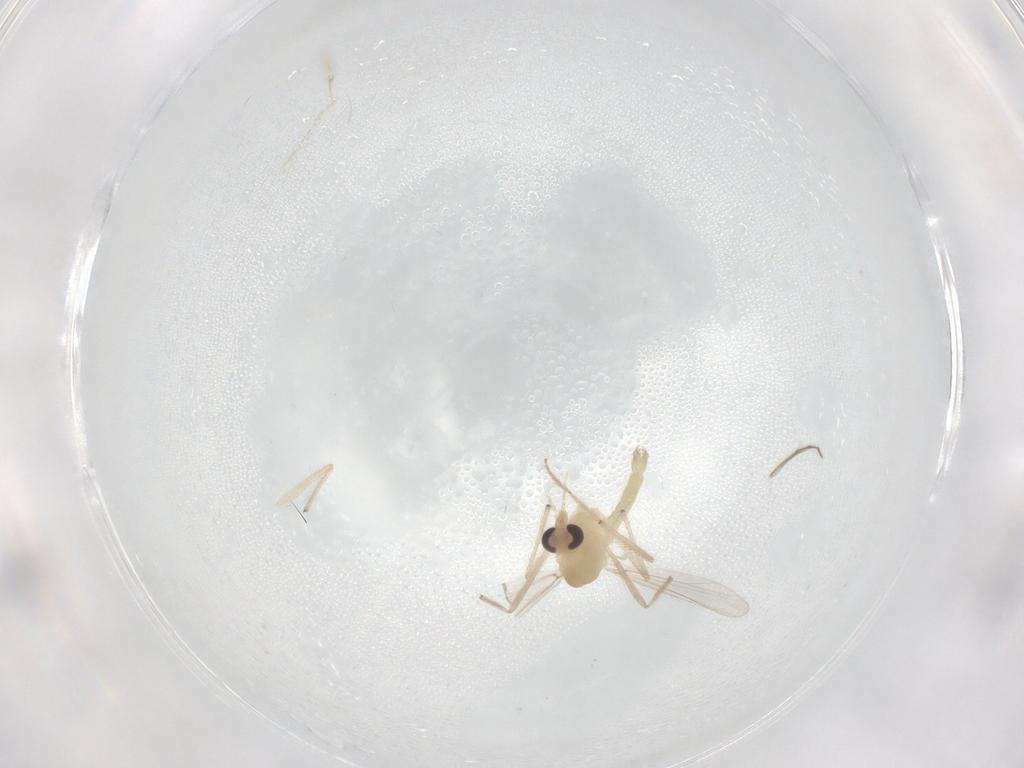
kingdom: Animalia
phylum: Arthropoda
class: Insecta
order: Diptera
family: Chironomidae
